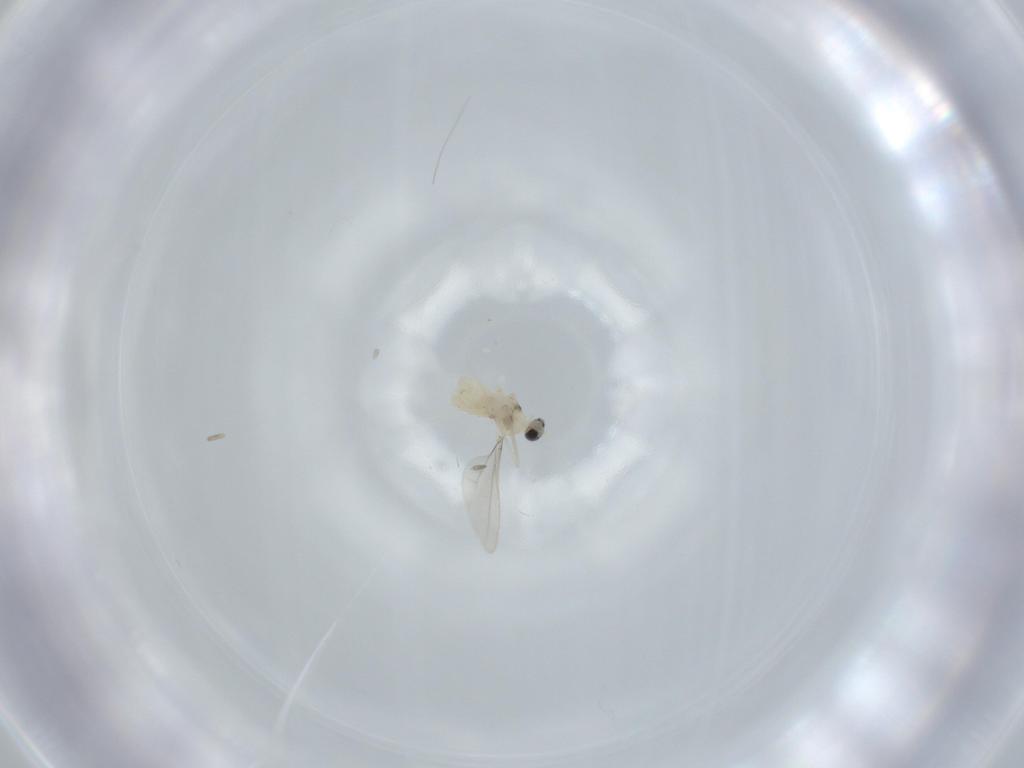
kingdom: Animalia
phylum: Arthropoda
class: Insecta
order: Diptera
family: Cecidomyiidae
